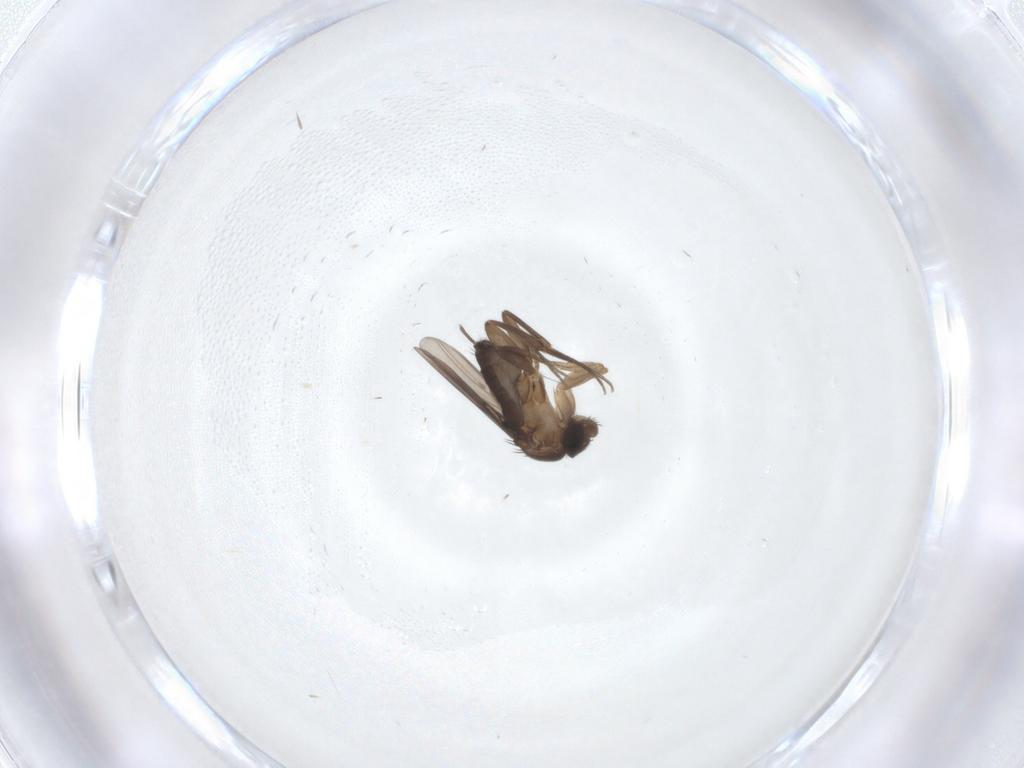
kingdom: Animalia
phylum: Arthropoda
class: Insecta
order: Diptera
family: Phoridae
